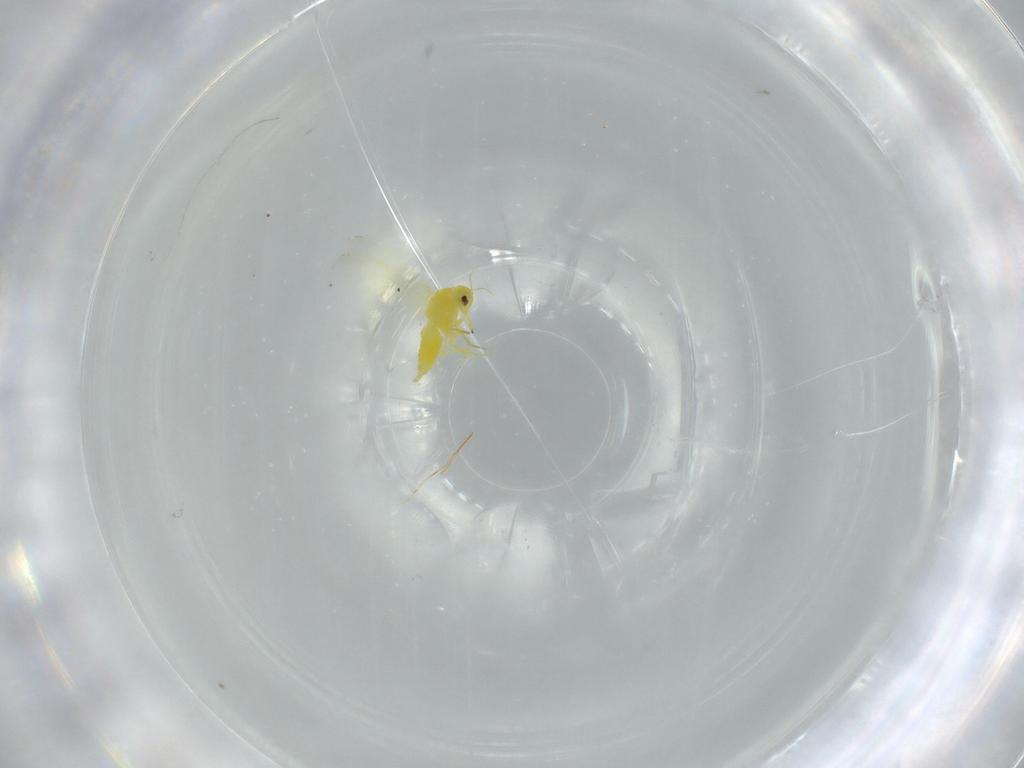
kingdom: Animalia
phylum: Arthropoda
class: Insecta
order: Hemiptera
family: Aleyrodidae
